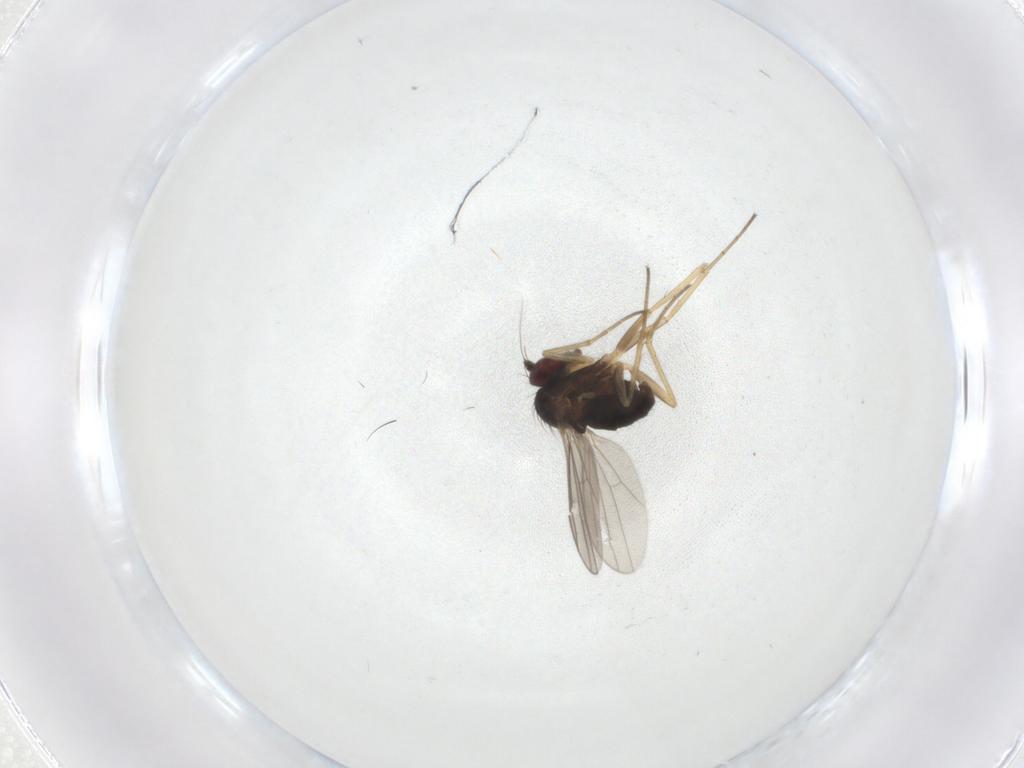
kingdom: Animalia
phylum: Arthropoda
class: Insecta
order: Diptera
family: Dolichopodidae
